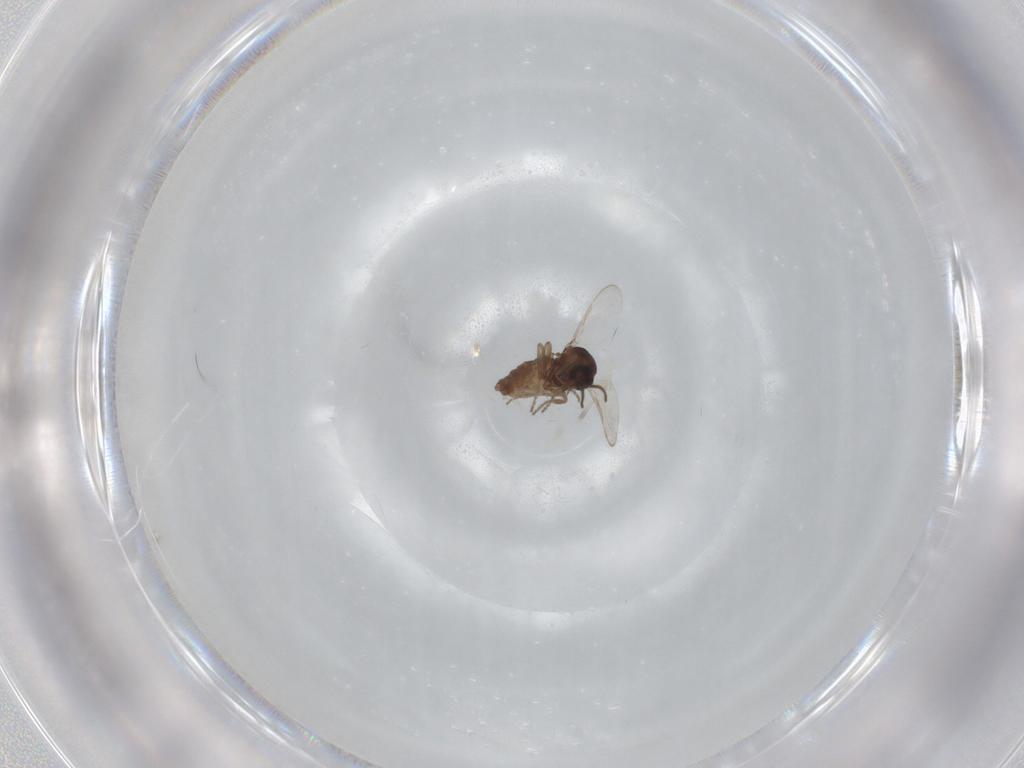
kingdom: Animalia
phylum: Arthropoda
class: Insecta
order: Diptera
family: Ceratopogonidae
